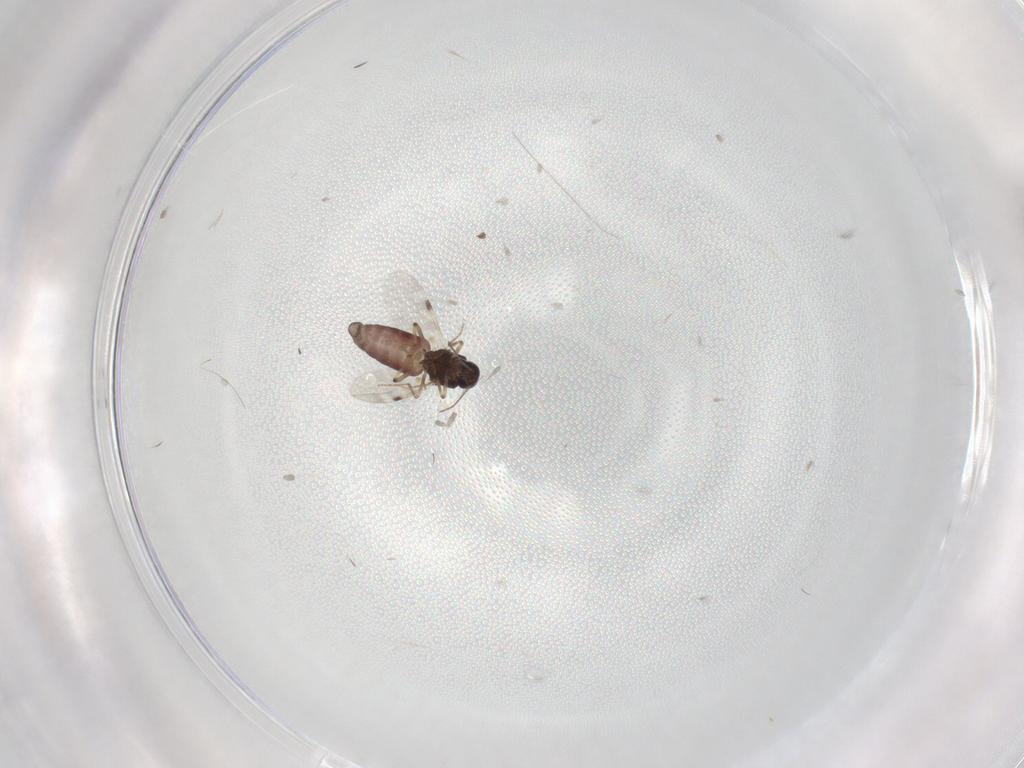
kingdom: Animalia
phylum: Arthropoda
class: Insecta
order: Diptera
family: Psychodidae
